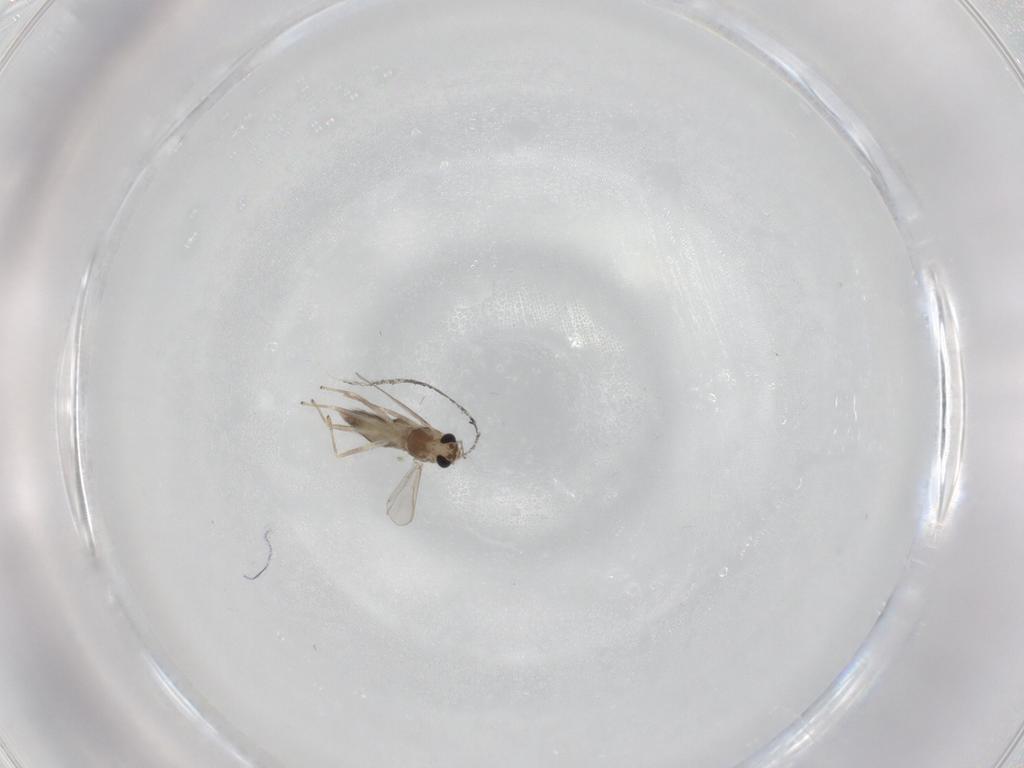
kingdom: Animalia
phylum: Arthropoda
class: Insecta
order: Diptera
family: Chironomidae
